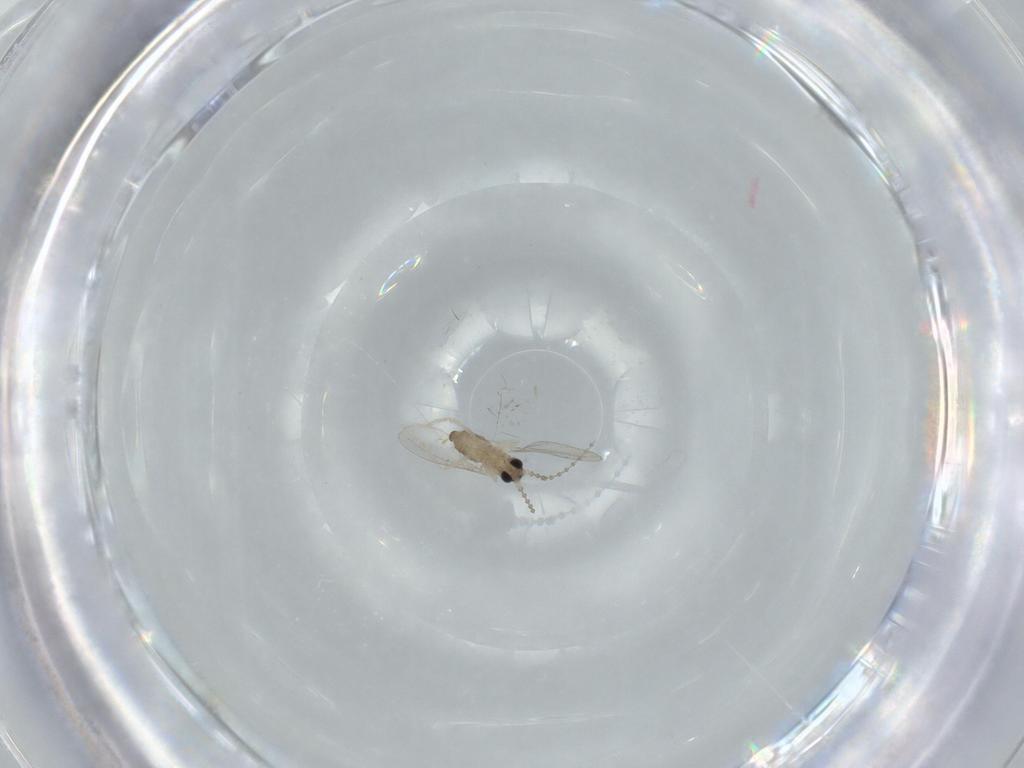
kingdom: Animalia
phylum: Arthropoda
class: Insecta
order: Diptera
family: Cecidomyiidae
